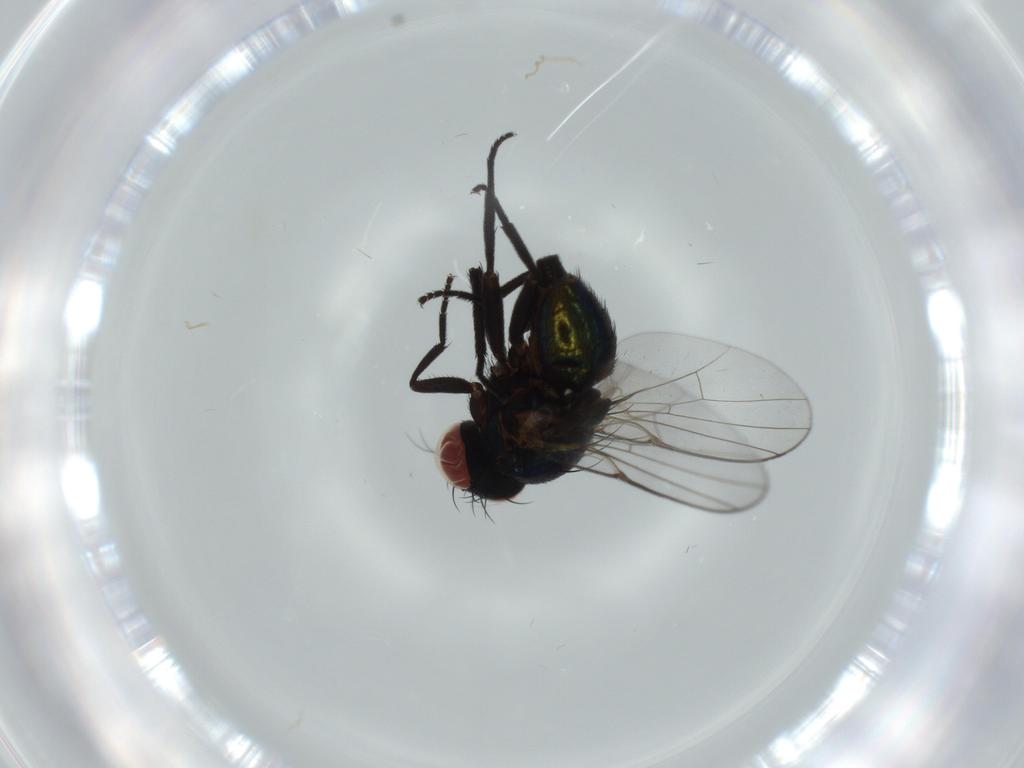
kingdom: Animalia
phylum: Arthropoda
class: Insecta
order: Diptera
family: Agromyzidae
